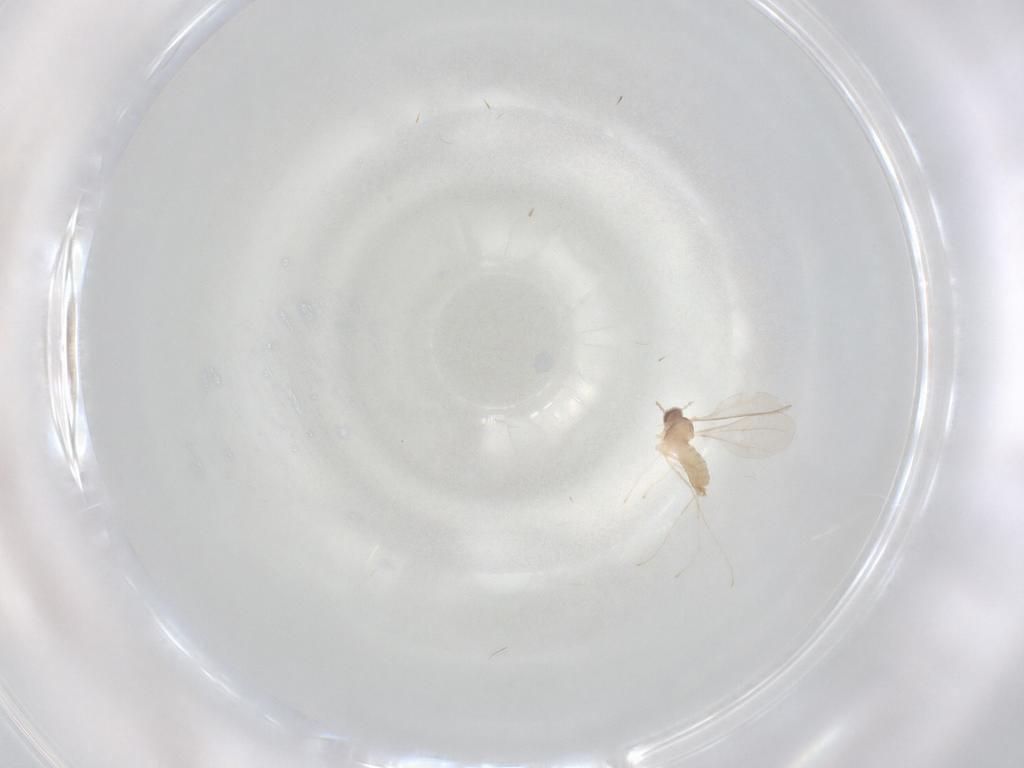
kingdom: Animalia
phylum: Arthropoda
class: Insecta
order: Diptera
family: Cecidomyiidae
